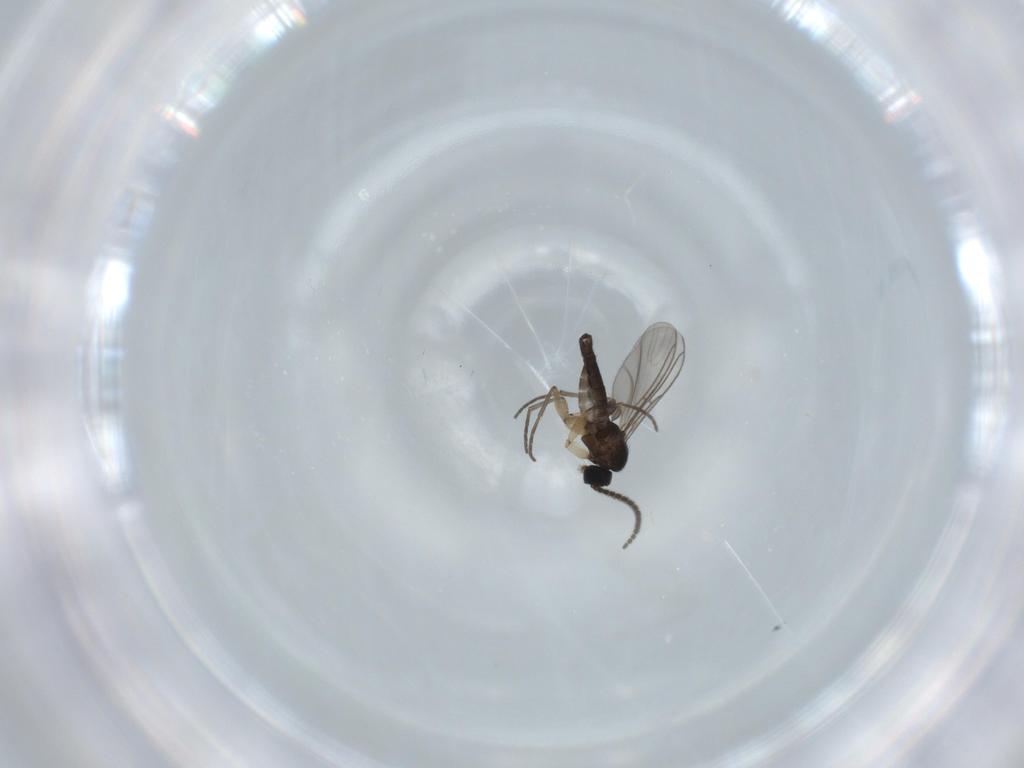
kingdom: Animalia
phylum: Arthropoda
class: Insecta
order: Diptera
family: Sciaridae
